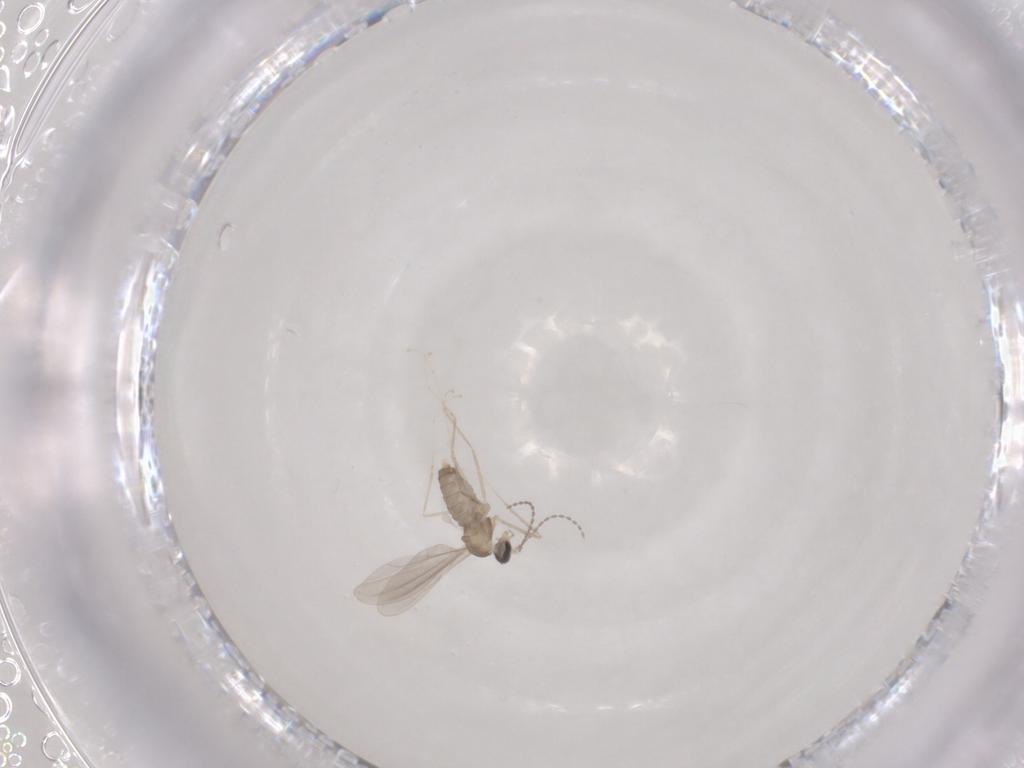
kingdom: Animalia
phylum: Arthropoda
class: Insecta
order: Diptera
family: Cecidomyiidae
